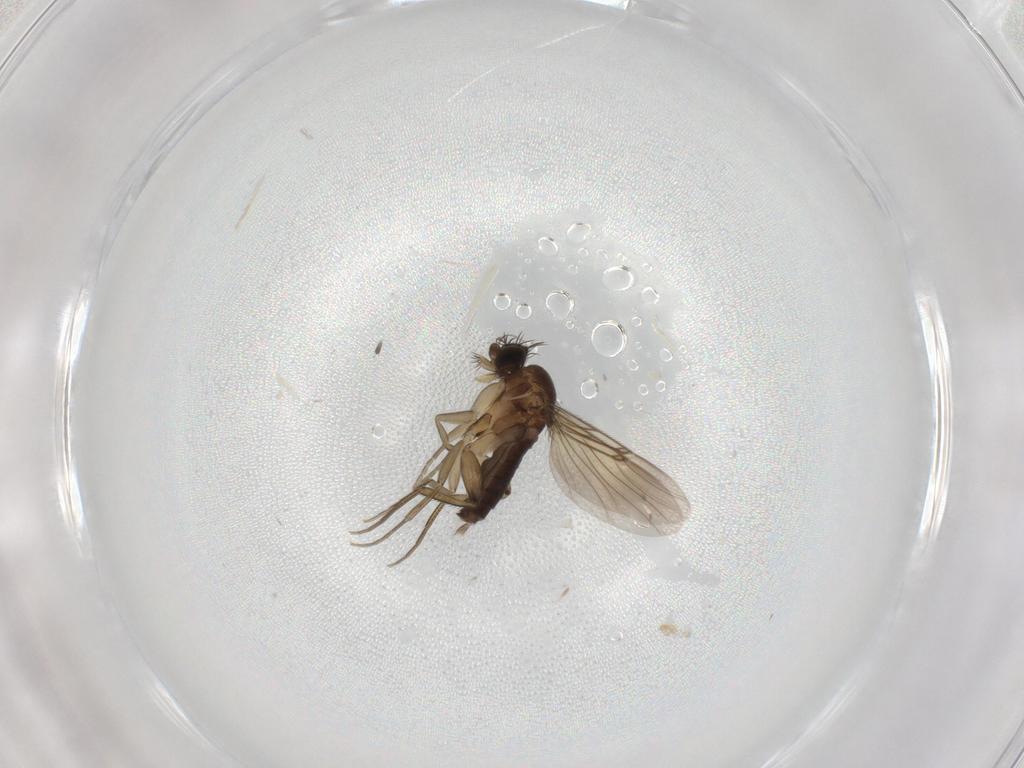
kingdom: Animalia
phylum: Arthropoda
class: Insecta
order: Diptera
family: Phoridae
